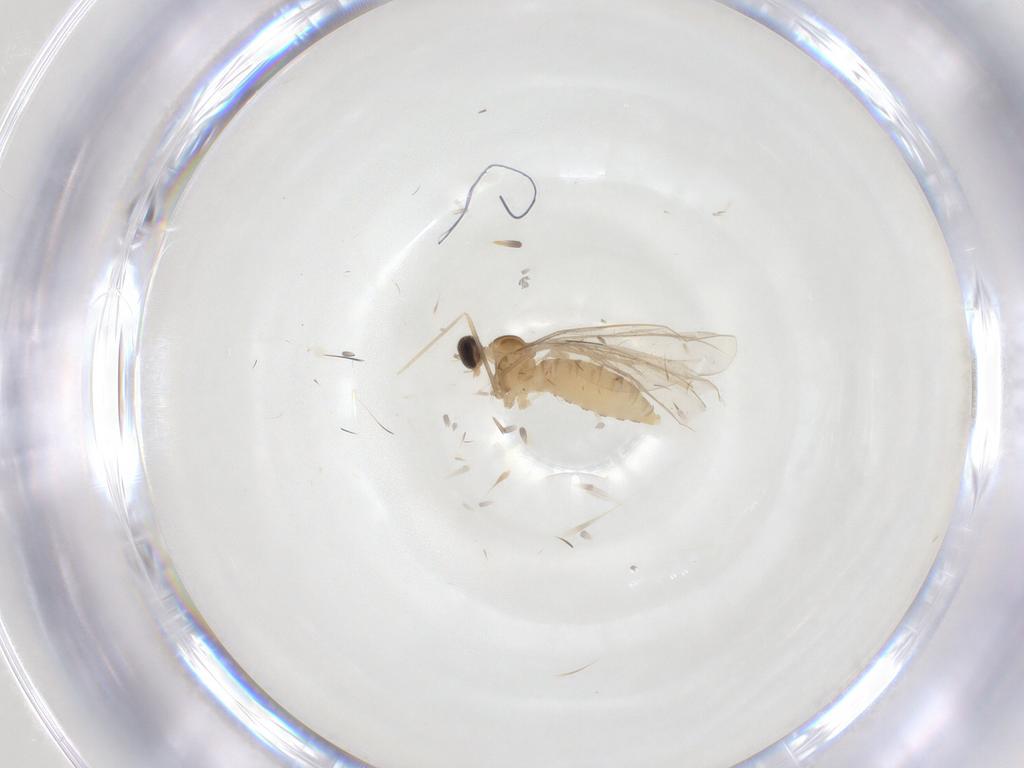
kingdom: Animalia
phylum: Arthropoda
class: Insecta
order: Diptera
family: Cecidomyiidae
